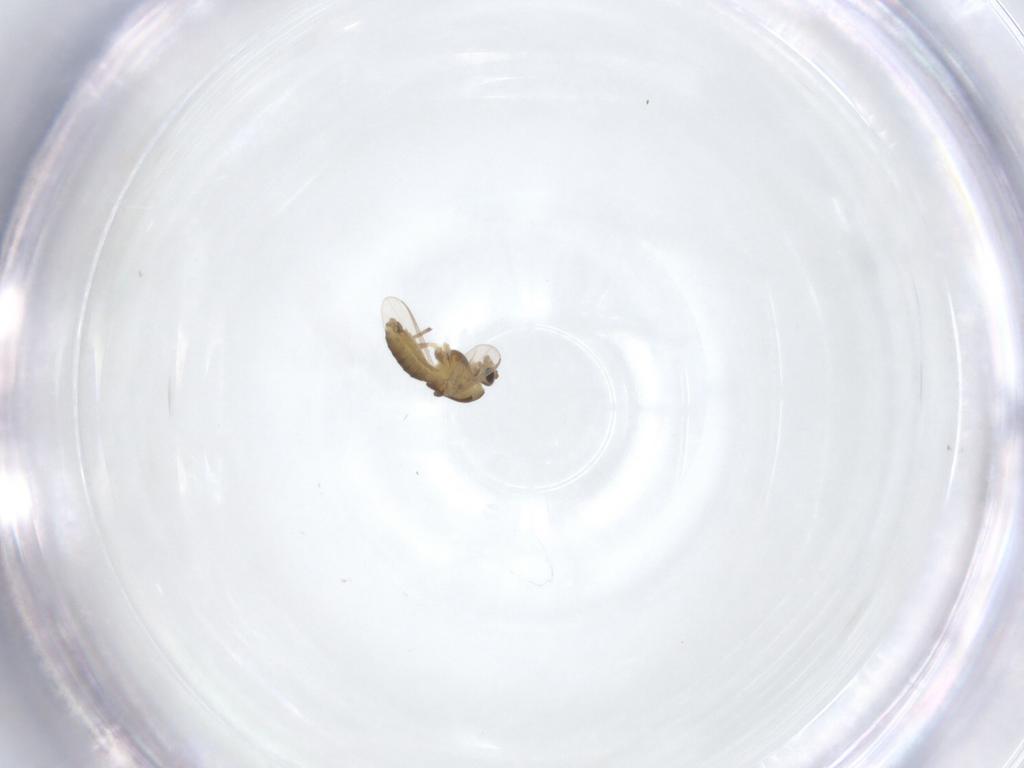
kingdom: Animalia
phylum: Arthropoda
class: Insecta
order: Diptera
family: Chironomidae
